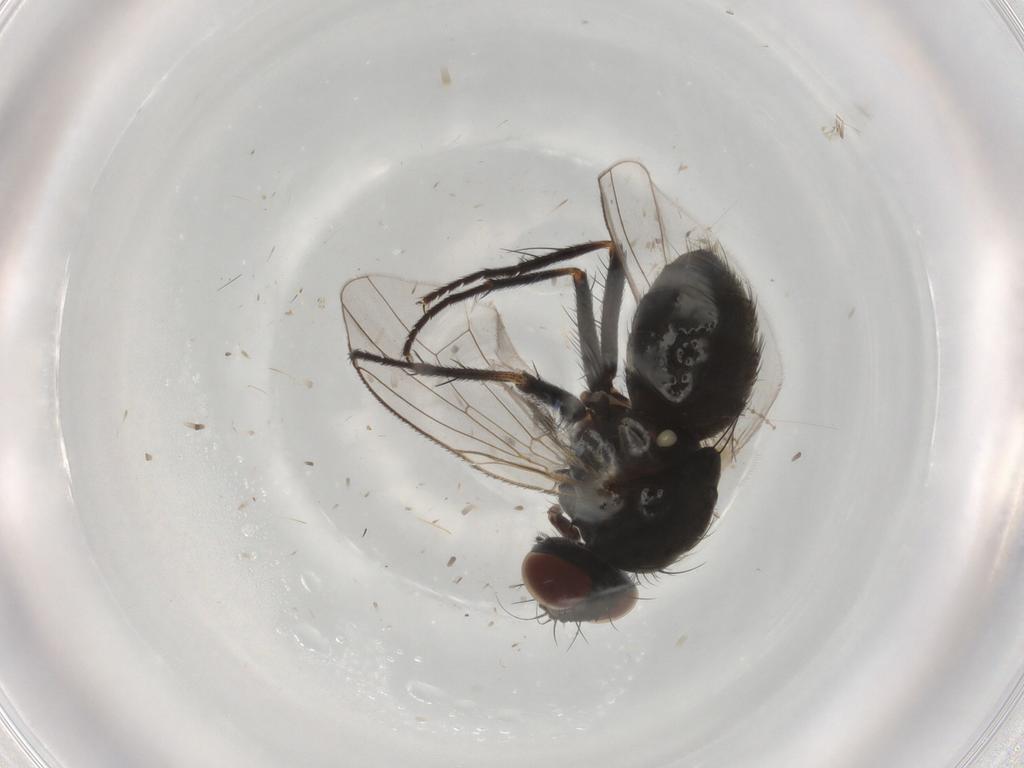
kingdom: Animalia
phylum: Arthropoda
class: Insecta
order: Diptera
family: Muscidae
